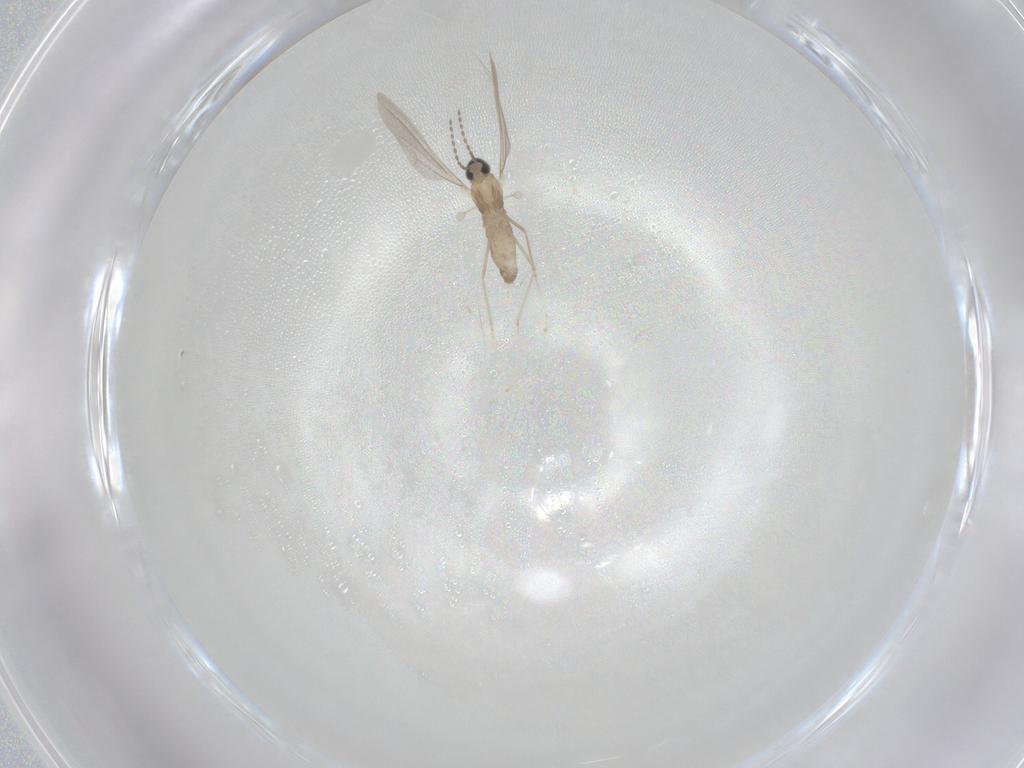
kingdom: Animalia
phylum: Arthropoda
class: Insecta
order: Diptera
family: Cecidomyiidae
